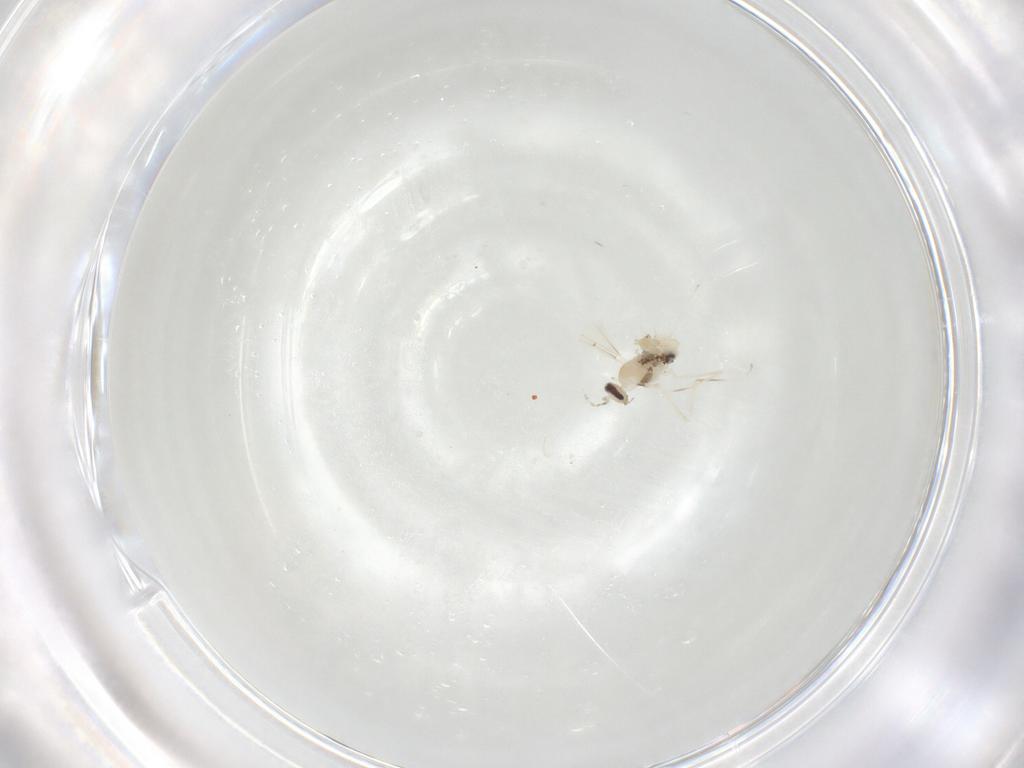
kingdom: Animalia
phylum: Arthropoda
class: Insecta
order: Diptera
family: Cecidomyiidae
